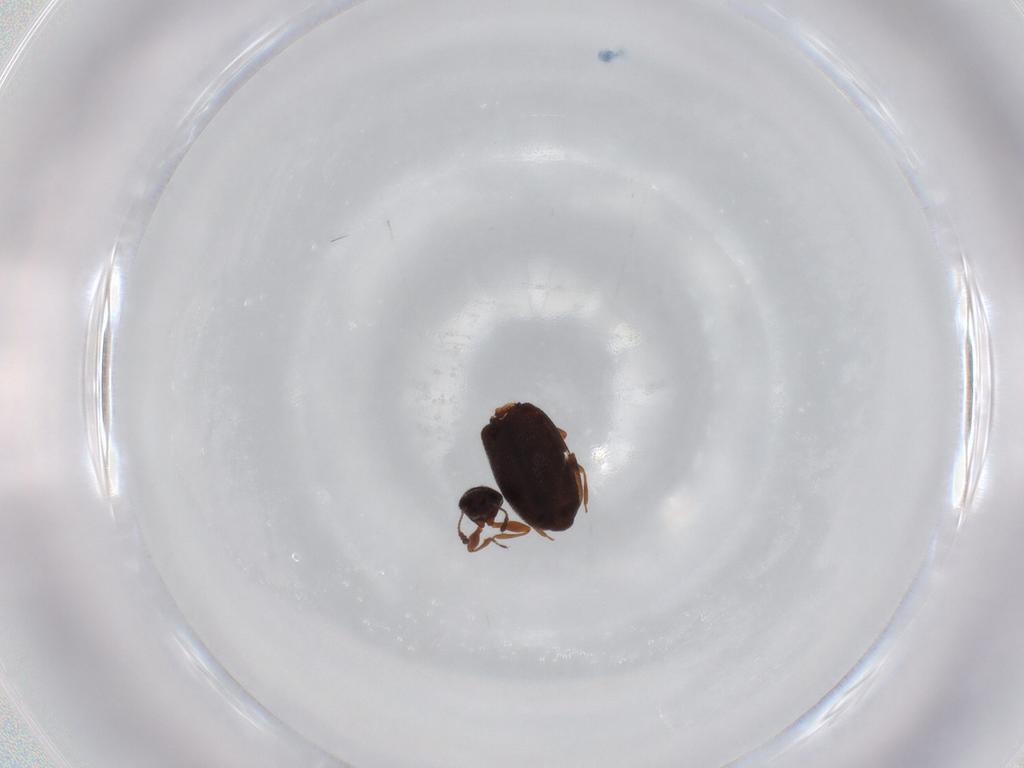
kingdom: Animalia
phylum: Arthropoda
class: Insecta
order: Coleoptera
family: Latridiidae
